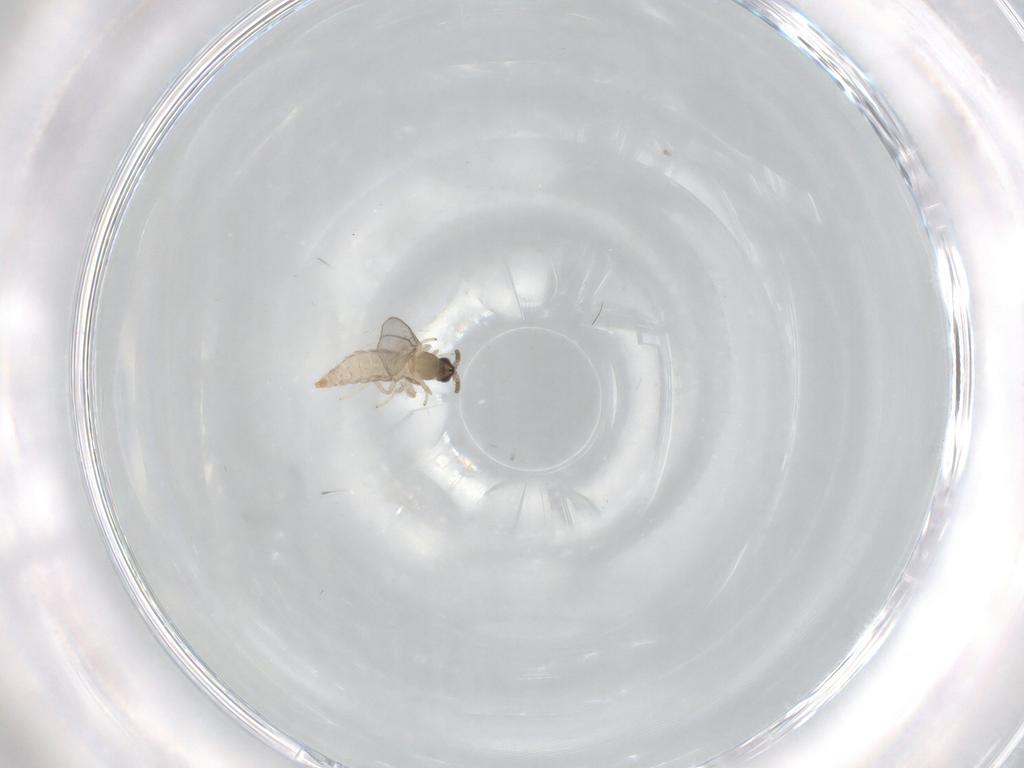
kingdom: Animalia
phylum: Arthropoda
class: Insecta
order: Diptera
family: Cecidomyiidae
